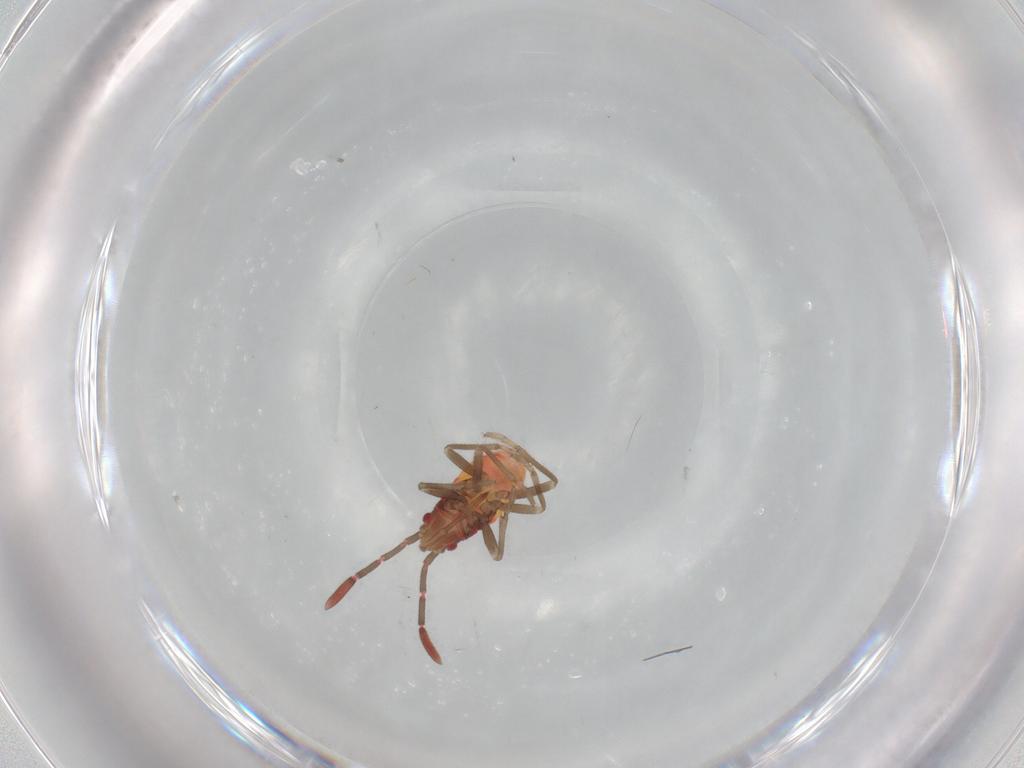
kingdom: Animalia
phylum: Arthropoda
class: Insecta
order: Hemiptera
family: Rhyparochromidae
